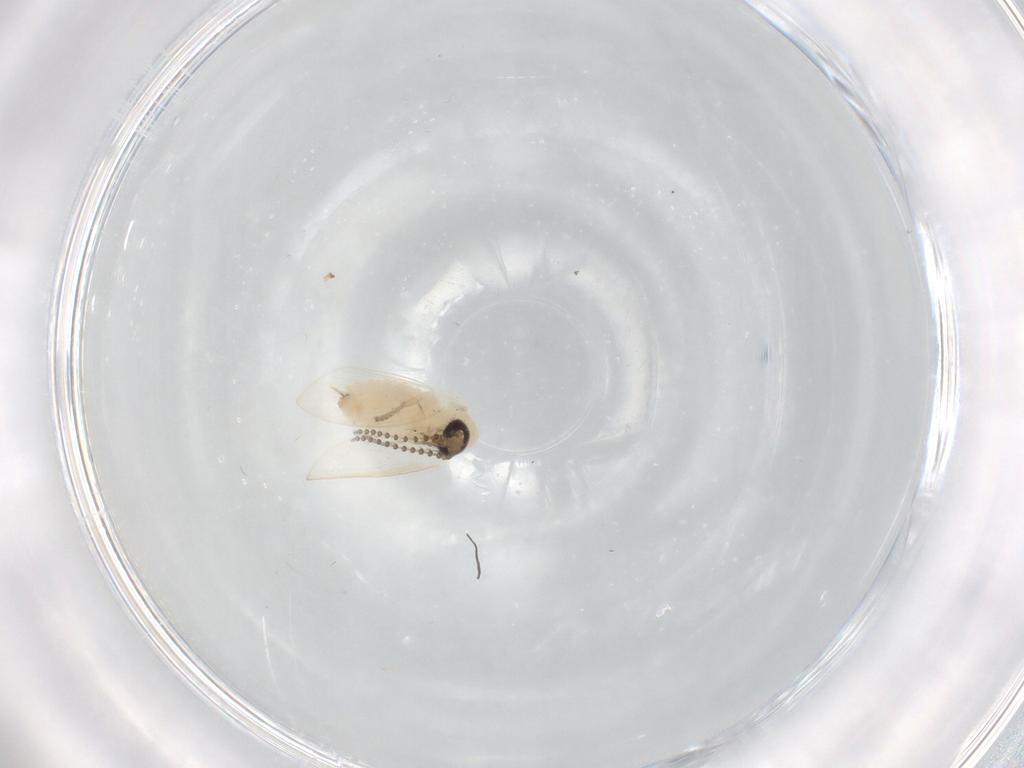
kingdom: Animalia
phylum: Arthropoda
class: Insecta
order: Diptera
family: Psychodidae
